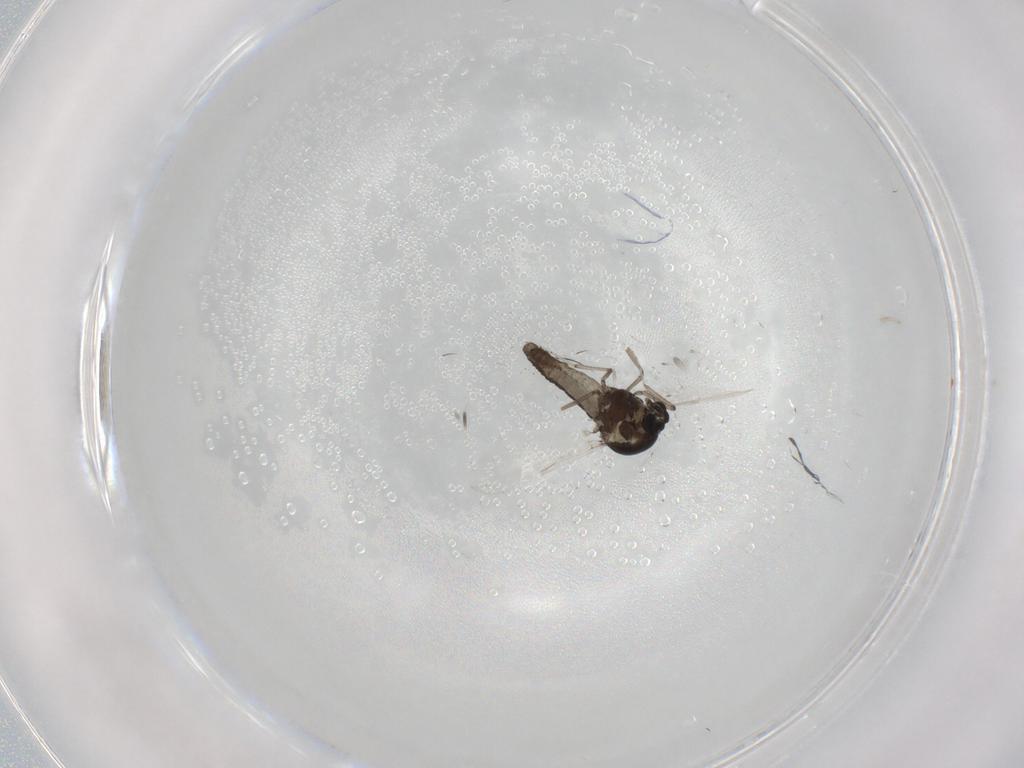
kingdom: Animalia
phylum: Arthropoda
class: Insecta
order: Diptera
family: Ceratopogonidae
